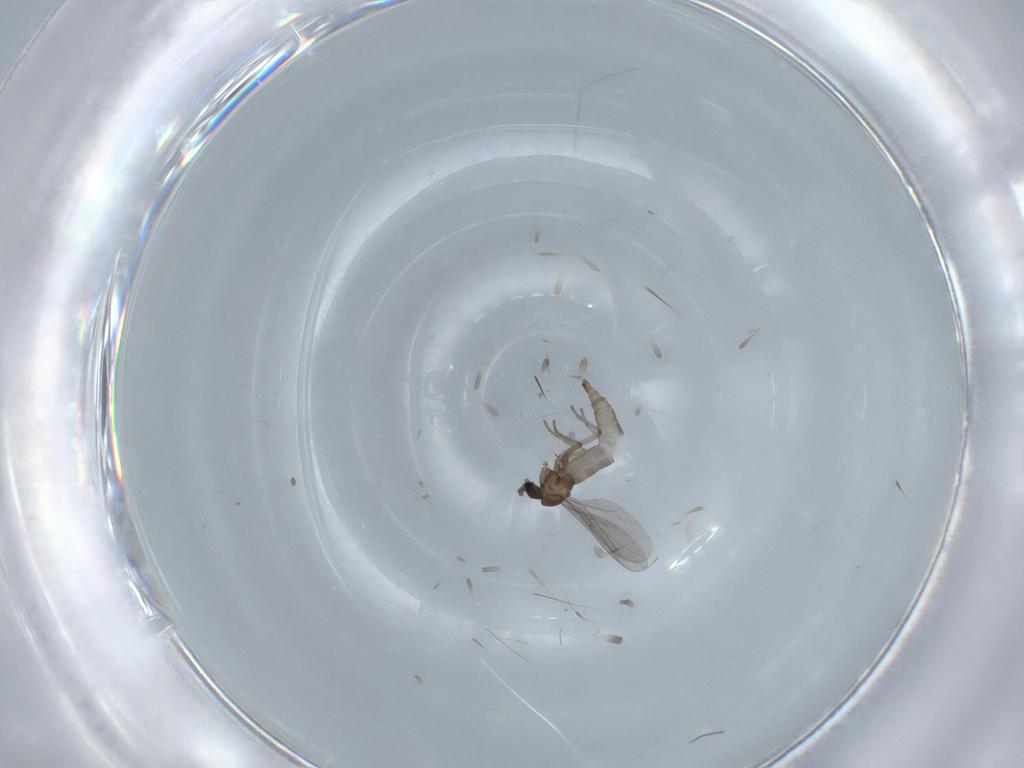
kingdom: Animalia
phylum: Arthropoda
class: Insecta
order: Diptera
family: Sciaridae
